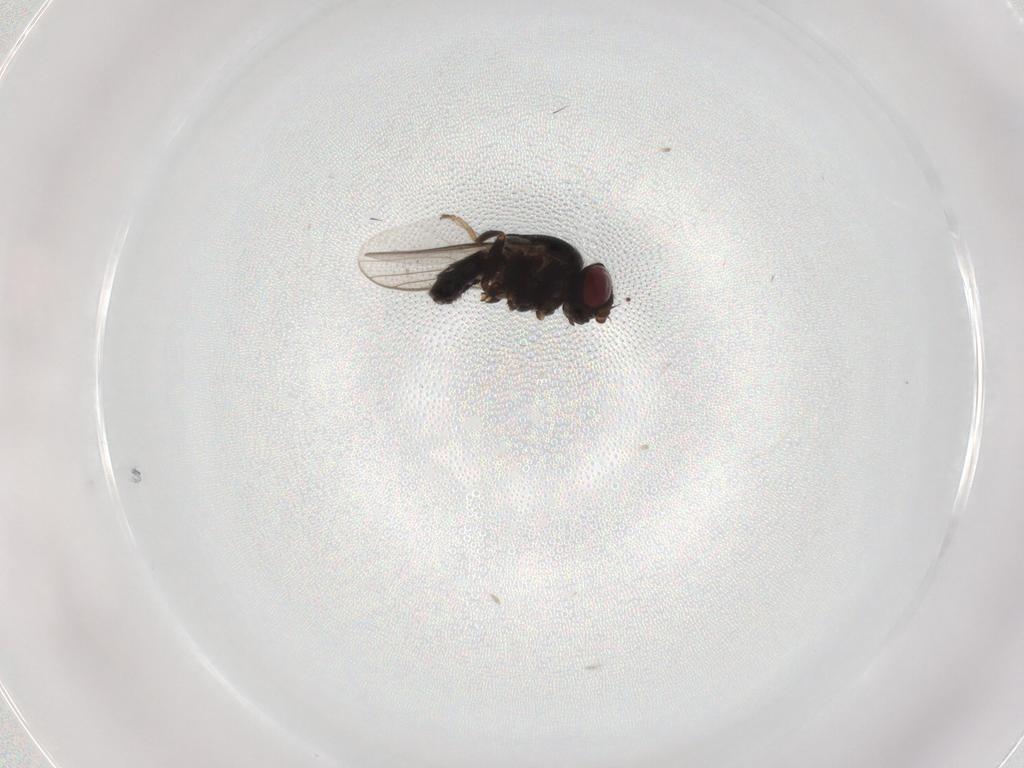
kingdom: Animalia
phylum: Arthropoda
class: Insecta
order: Diptera
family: Chloropidae
